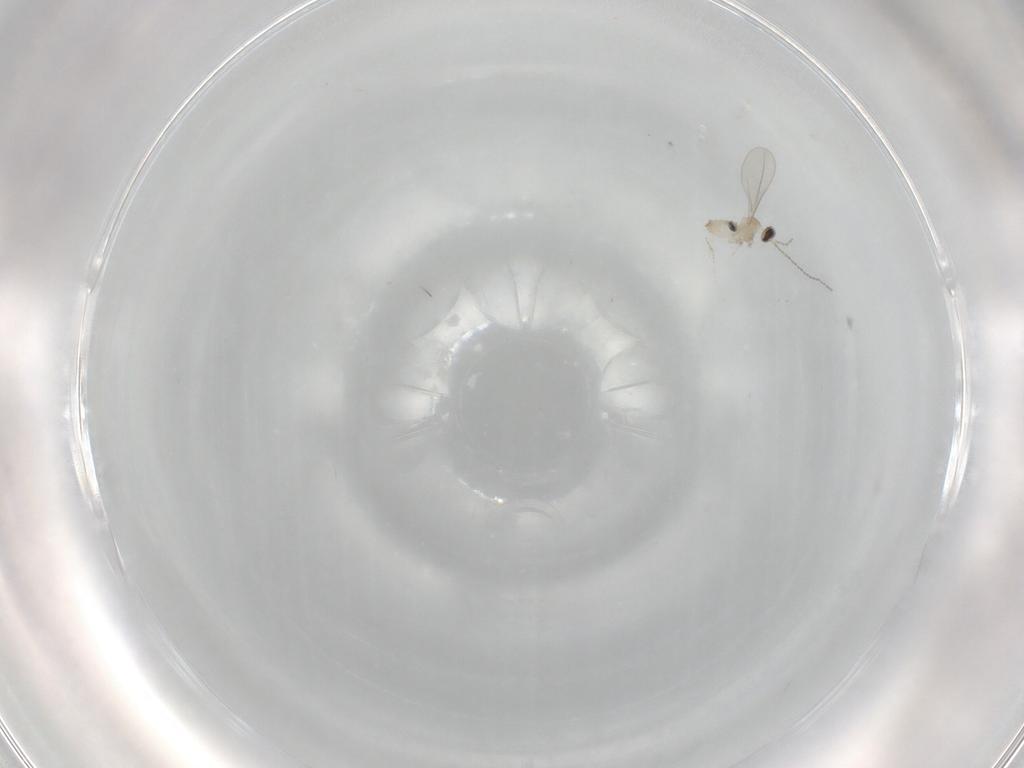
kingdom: Animalia
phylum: Arthropoda
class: Insecta
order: Diptera
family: Cecidomyiidae
